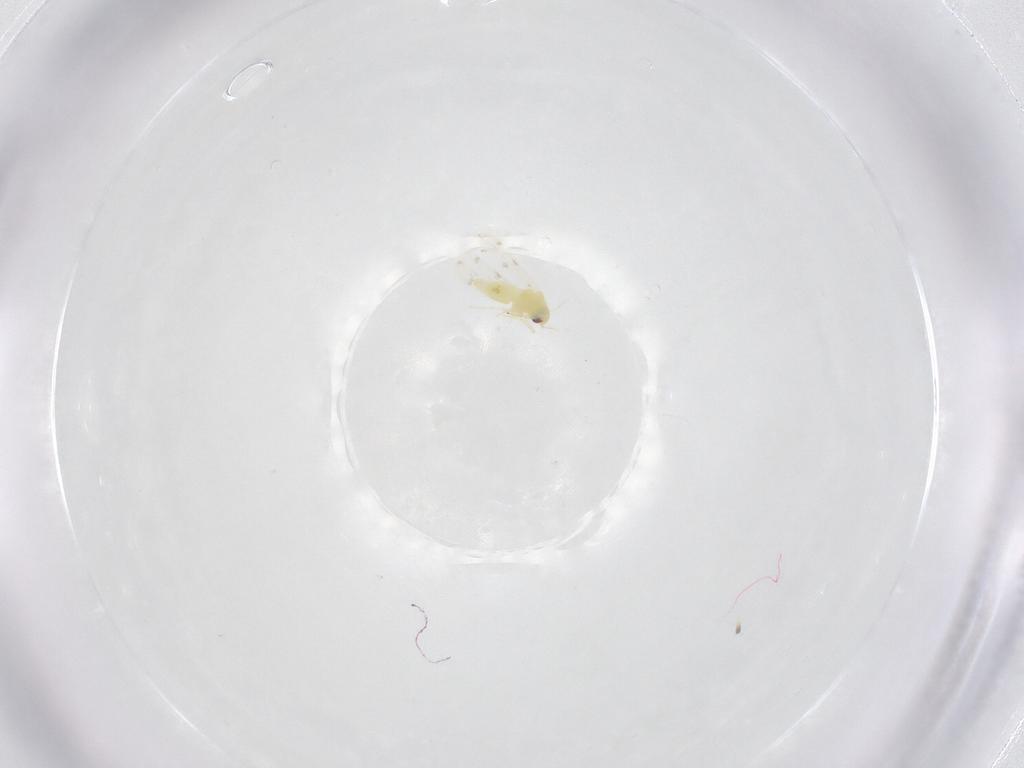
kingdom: Animalia
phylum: Arthropoda
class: Insecta
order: Hemiptera
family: Aleyrodidae
